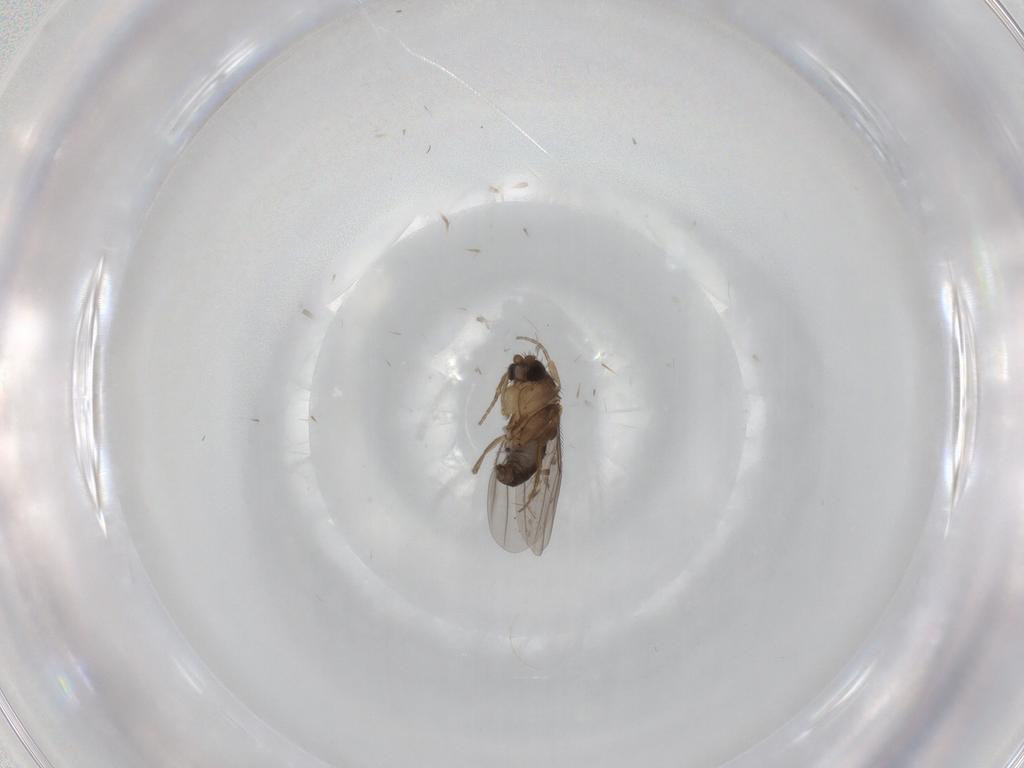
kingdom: Animalia
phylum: Arthropoda
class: Insecta
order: Diptera
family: Sciaridae
